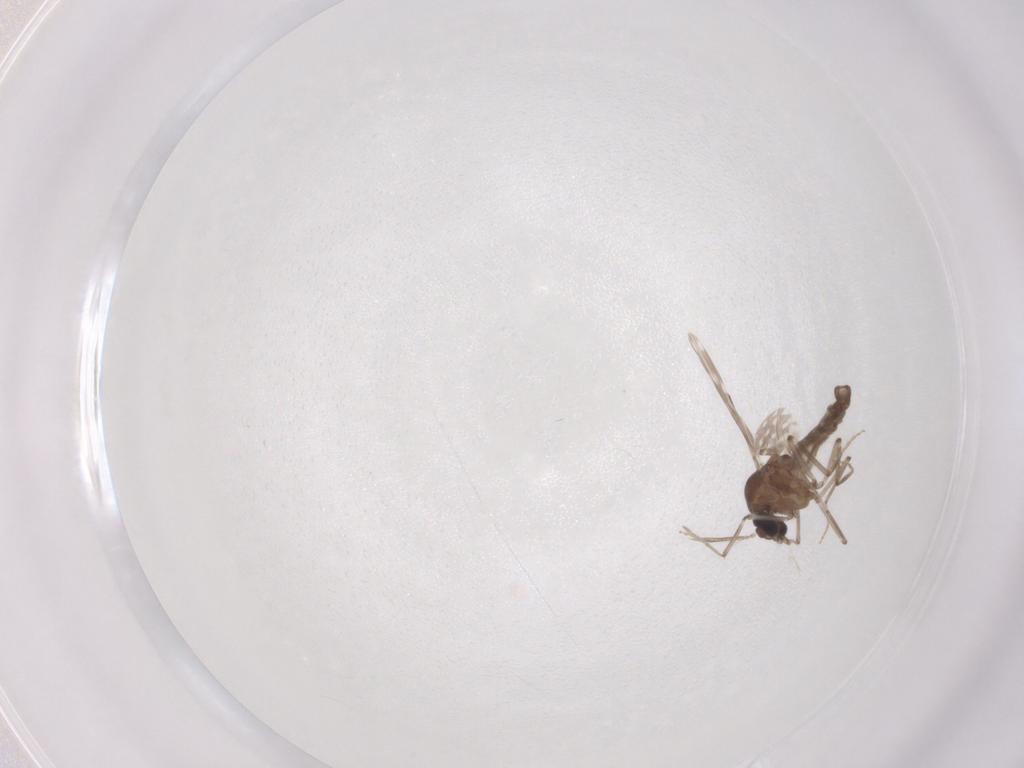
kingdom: Animalia
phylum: Arthropoda
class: Insecta
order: Diptera
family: Ceratopogonidae
